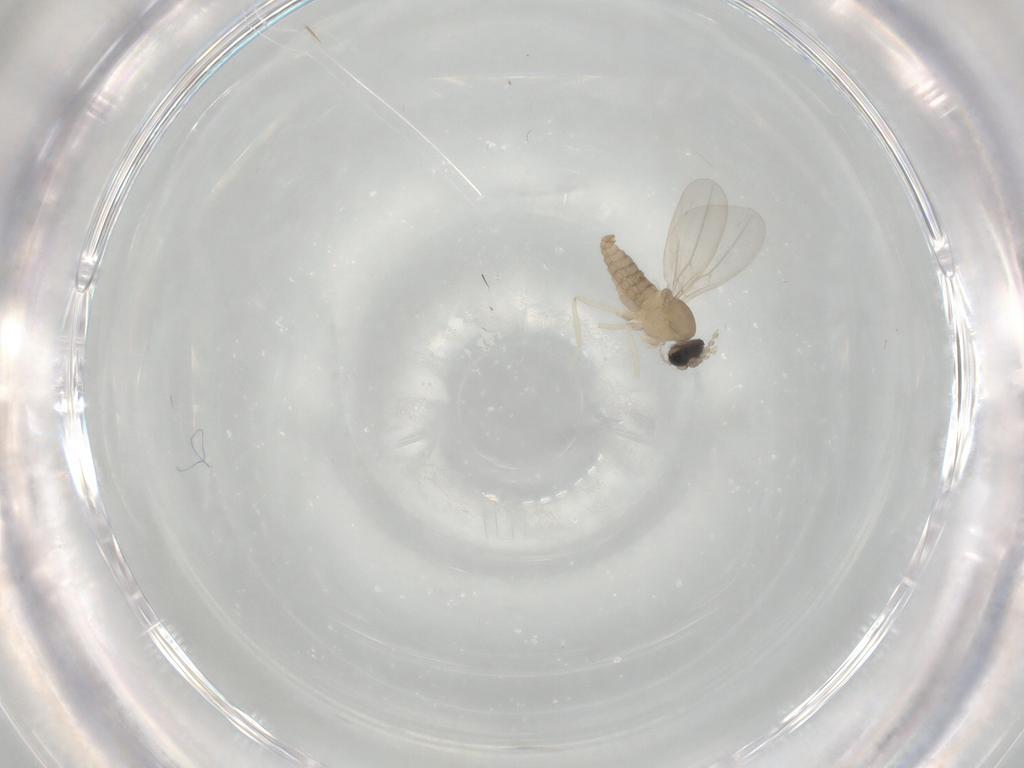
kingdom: Animalia
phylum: Arthropoda
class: Insecta
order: Diptera
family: Cecidomyiidae
